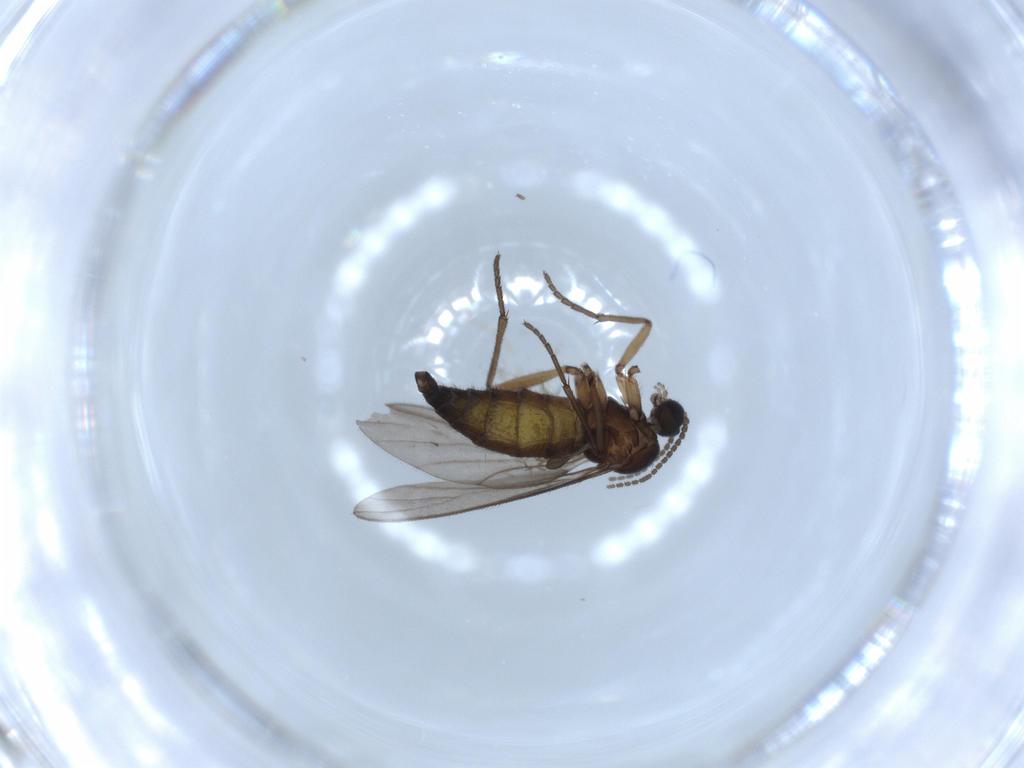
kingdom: Animalia
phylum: Arthropoda
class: Insecta
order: Diptera
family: Sciaridae
